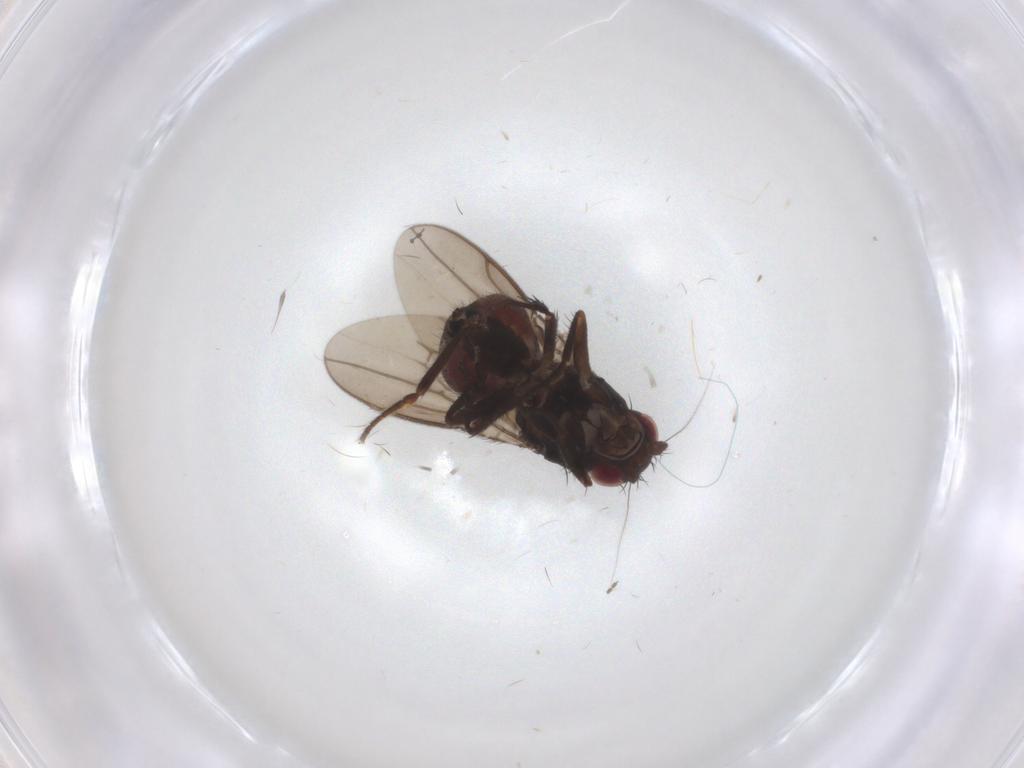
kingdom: Animalia
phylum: Arthropoda
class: Insecta
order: Diptera
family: Sphaeroceridae
